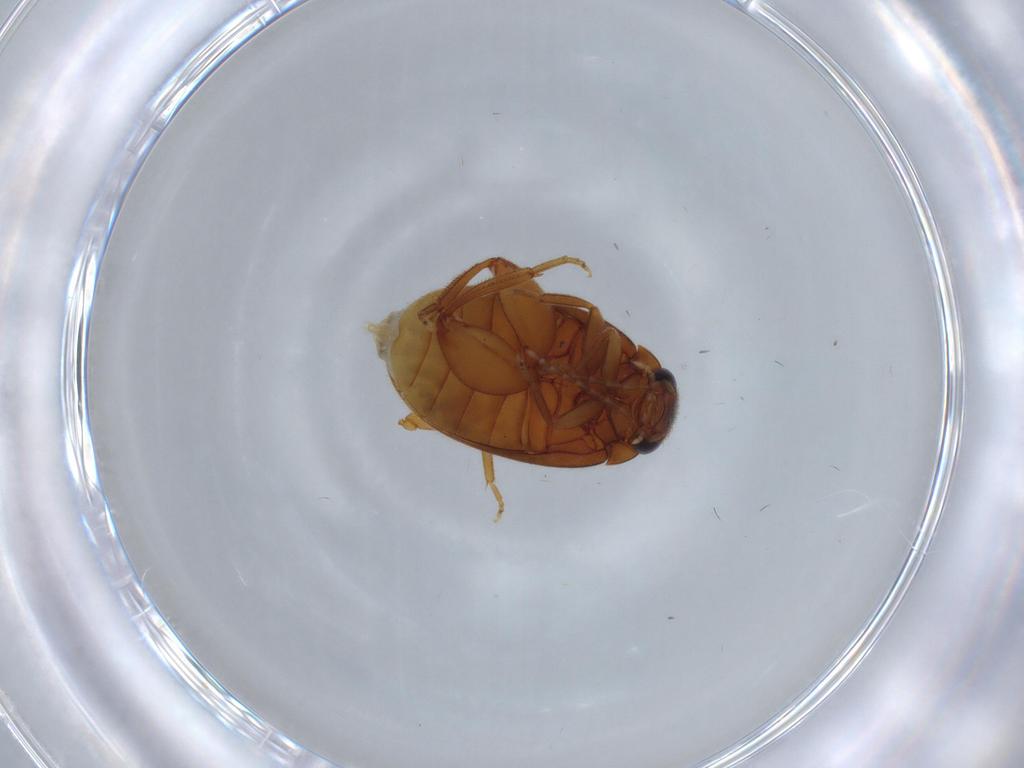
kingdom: Animalia
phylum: Arthropoda
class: Insecta
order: Coleoptera
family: Scirtidae
